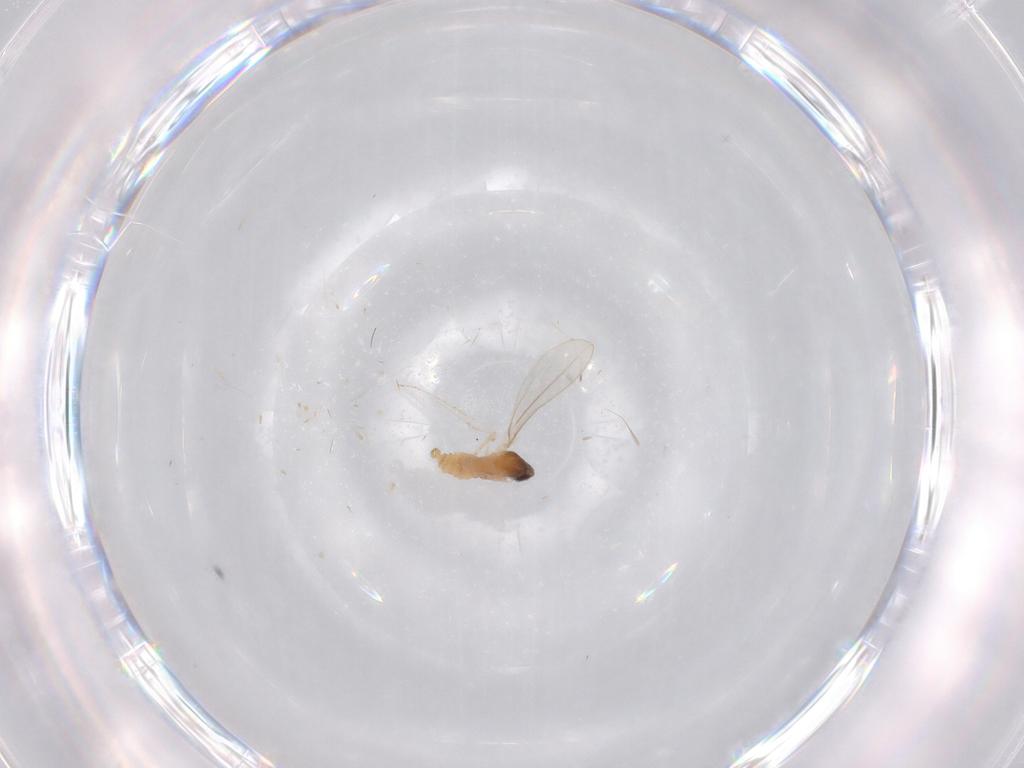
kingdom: Animalia
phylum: Arthropoda
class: Insecta
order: Diptera
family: Cecidomyiidae
